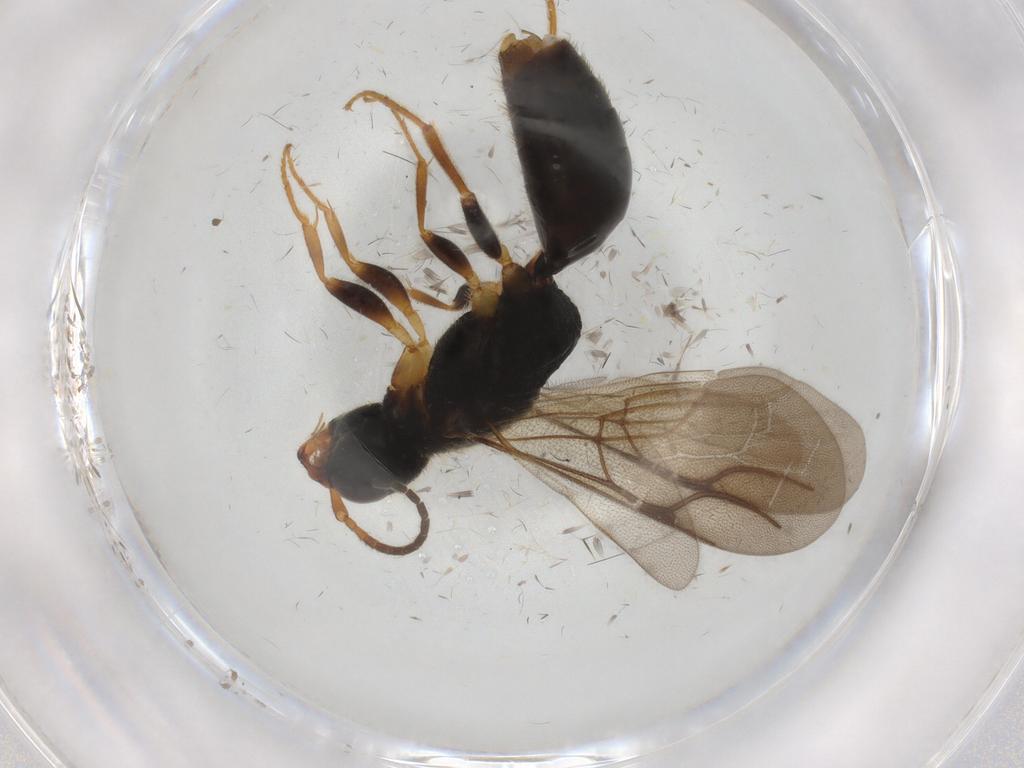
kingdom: Animalia
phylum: Arthropoda
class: Insecta
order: Hymenoptera
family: Bethylidae
